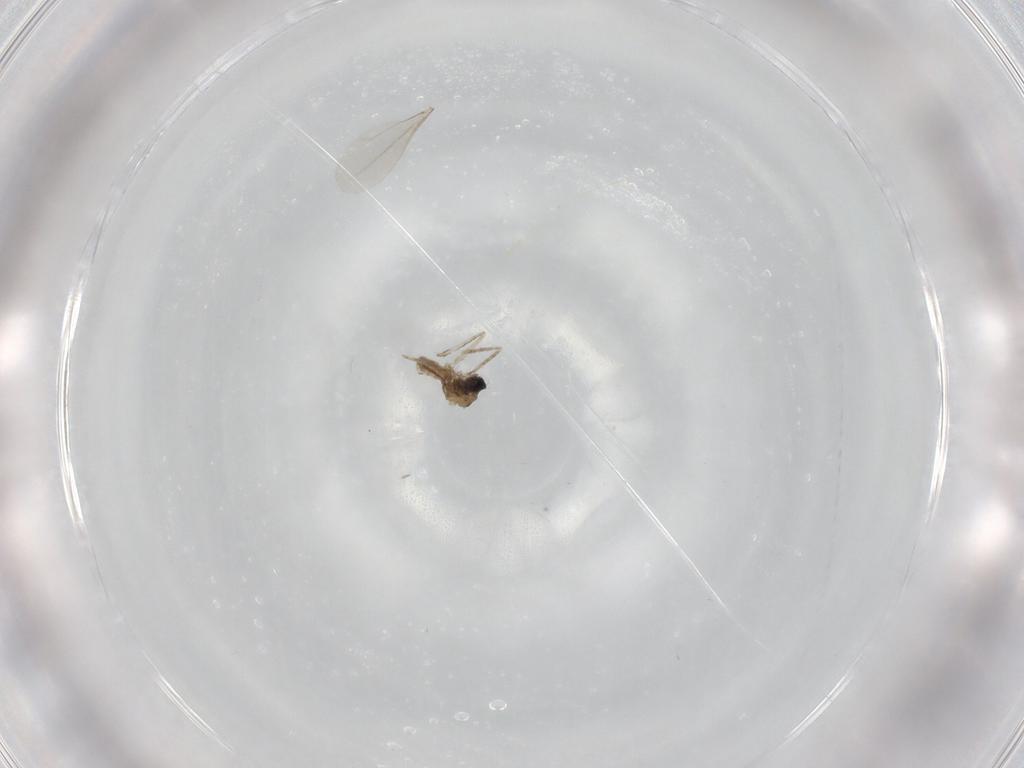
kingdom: Animalia
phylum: Arthropoda
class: Insecta
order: Diptera
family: Cecidomyiidae
